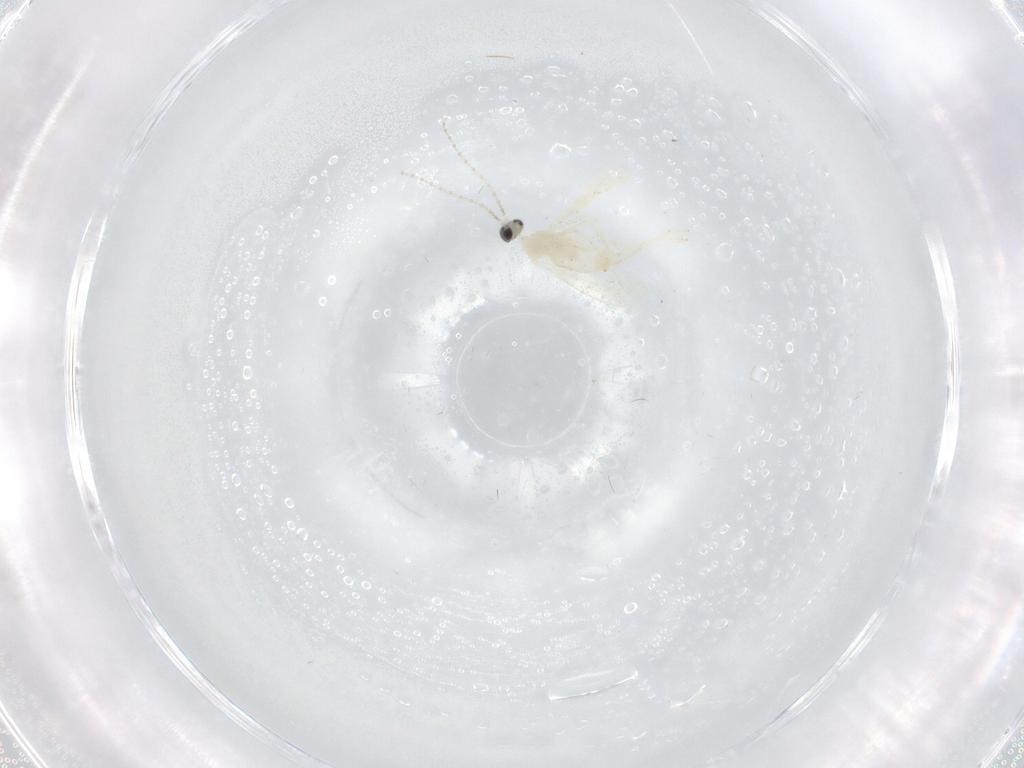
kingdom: Animalia
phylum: Arthropoda
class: Insecta
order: Diptera
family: Cecidomyiidae
